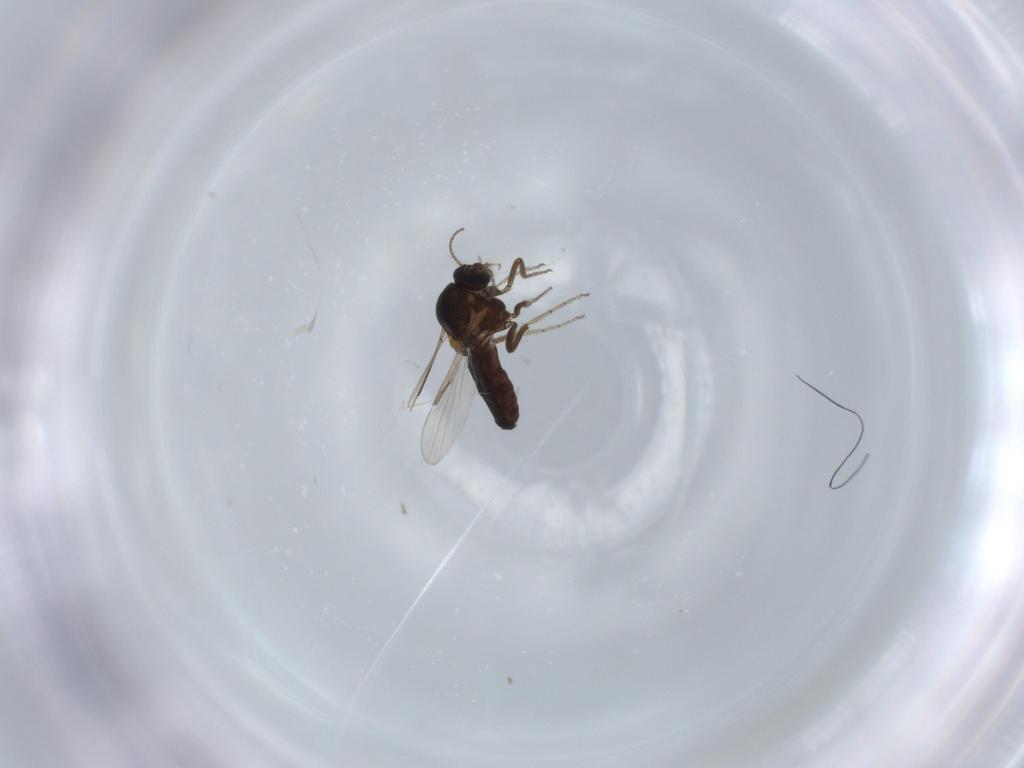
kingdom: Animalia
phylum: Arthropoda
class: Insecta
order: Diptera
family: Ceratopogonidae
